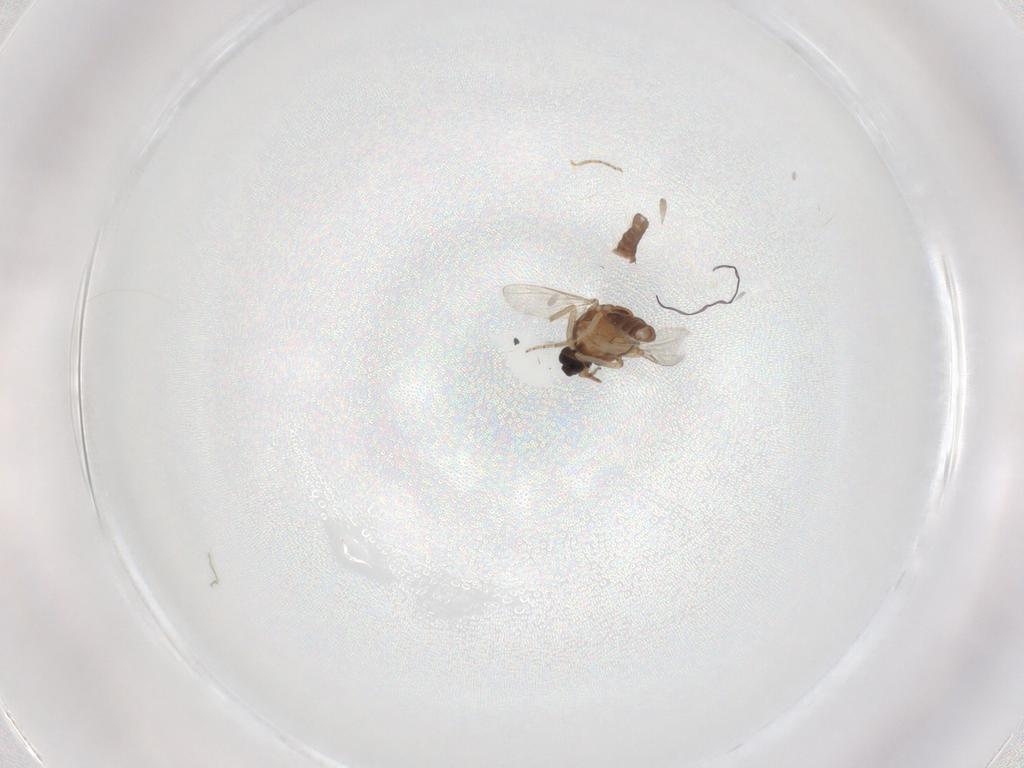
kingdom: Animalia
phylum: Arthropoda
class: Insecta
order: Diptera
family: Ceratopogonidae
